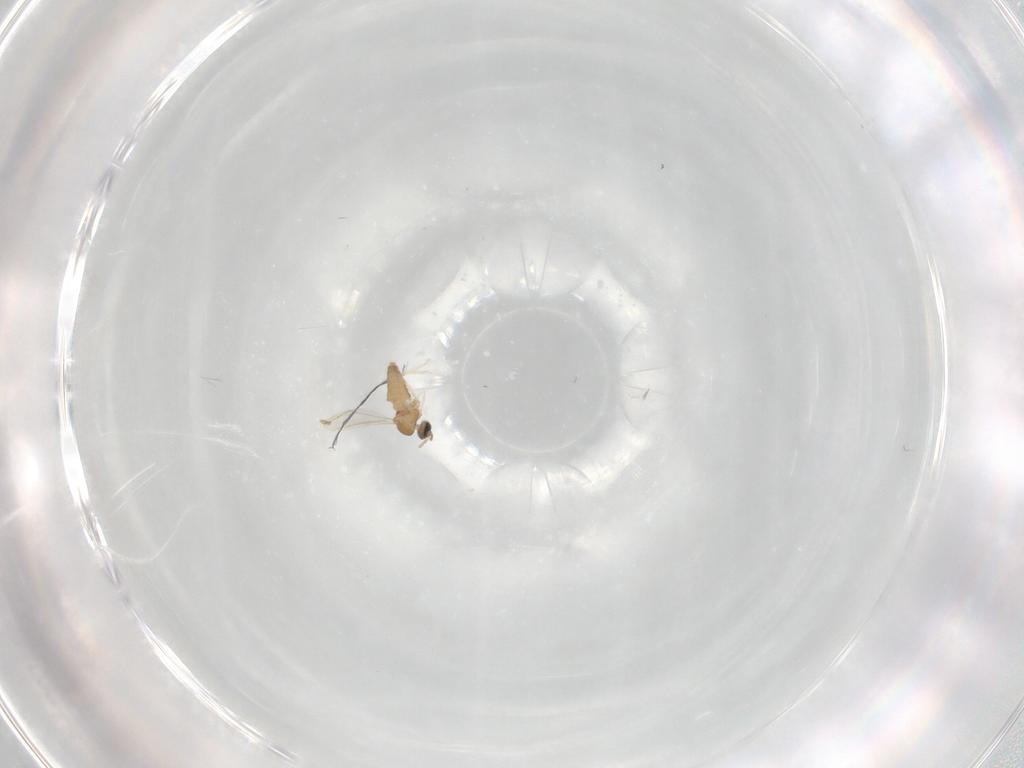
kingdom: Animalia
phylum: Arthropoda
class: Insecta
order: Diptera
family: Cecidomyiidae
